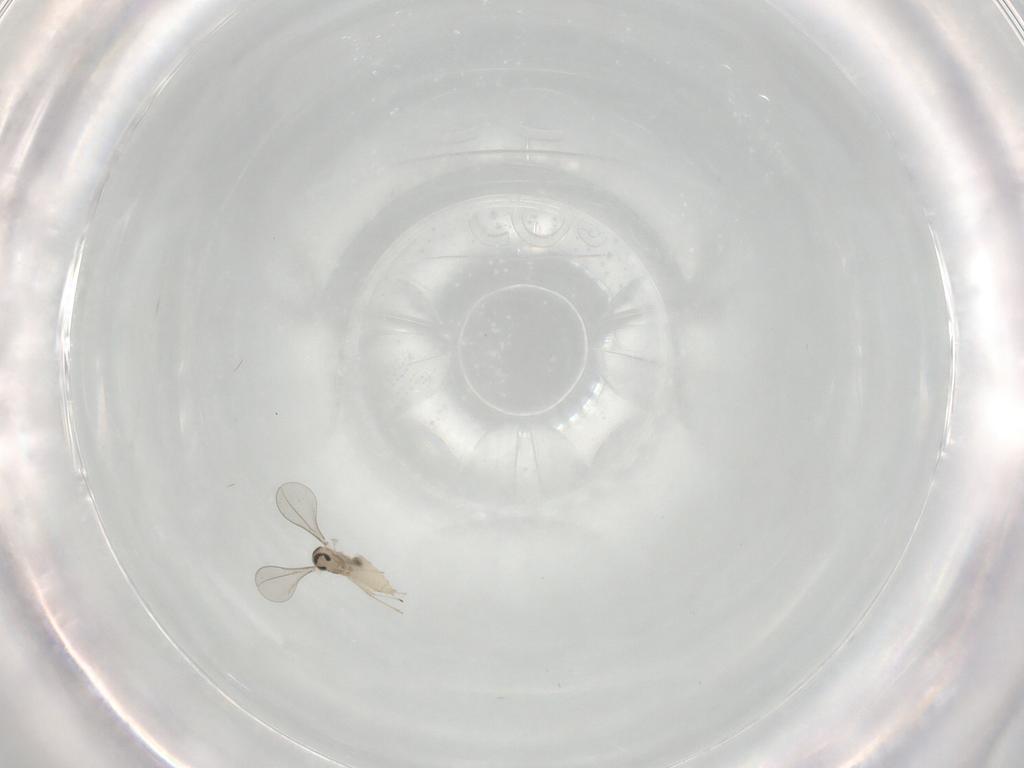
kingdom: Animalia
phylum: Arthropoda
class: Insecta
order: Diptera
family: Cecidomyiidae
